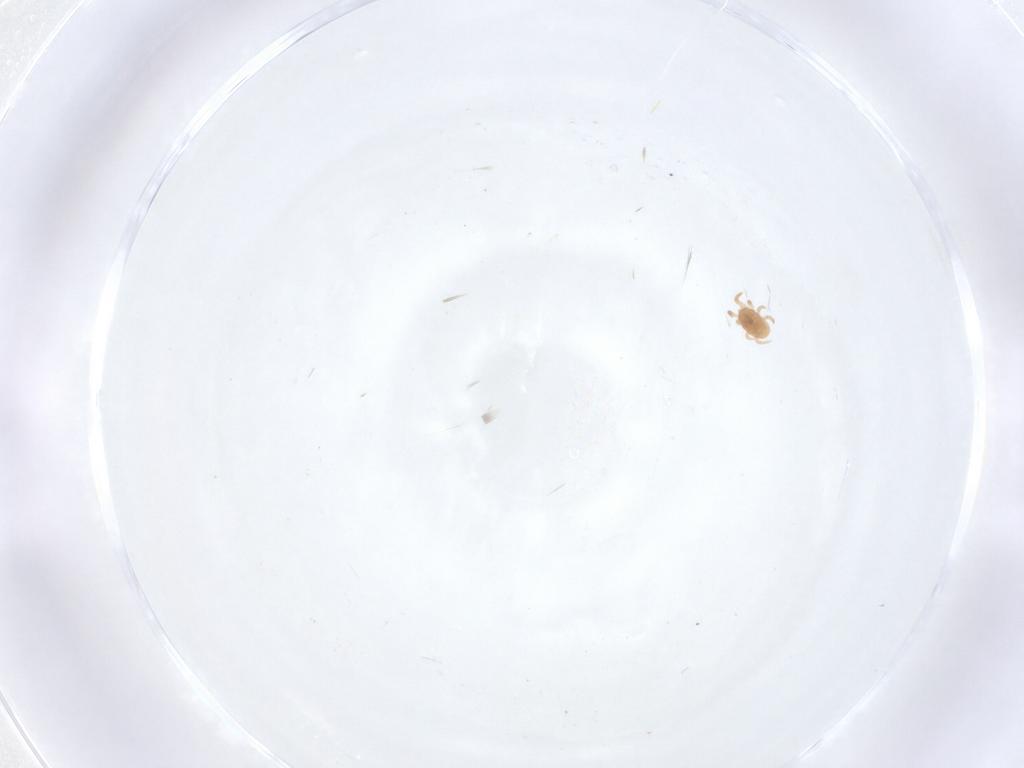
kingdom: Animalia
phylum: Arthropoda
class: Arachnida
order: Mesostigmata
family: Ameroseiidae
